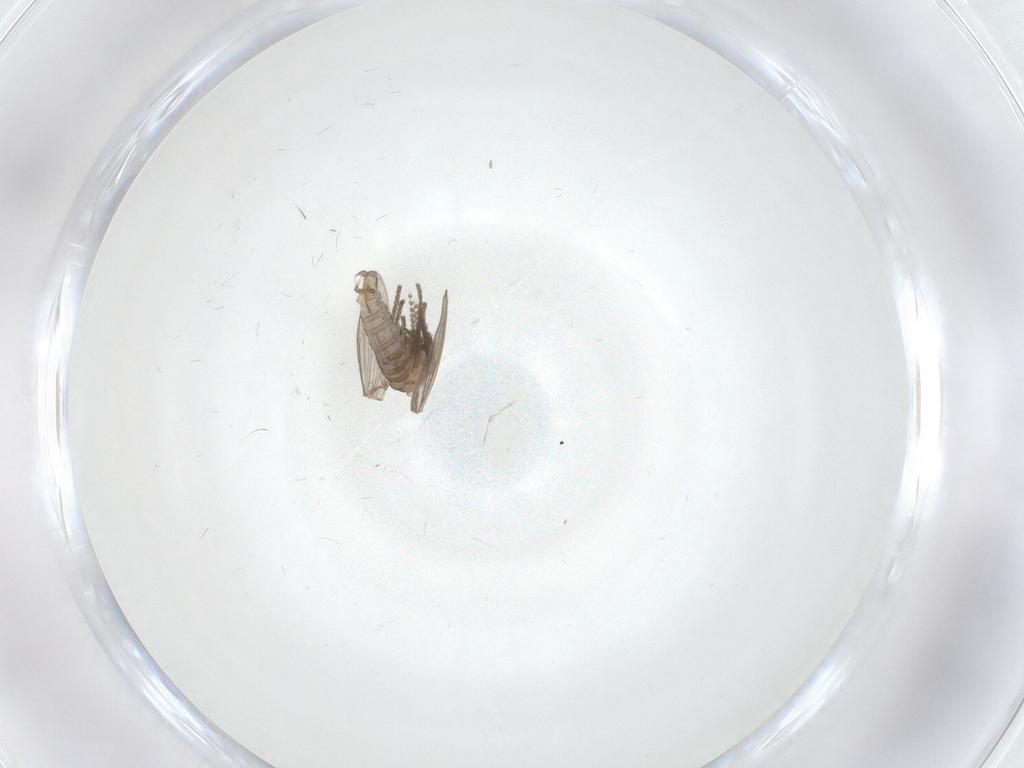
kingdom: Animalia
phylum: Arthropoda
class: Insecta
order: Diptera
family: Psychodidae
